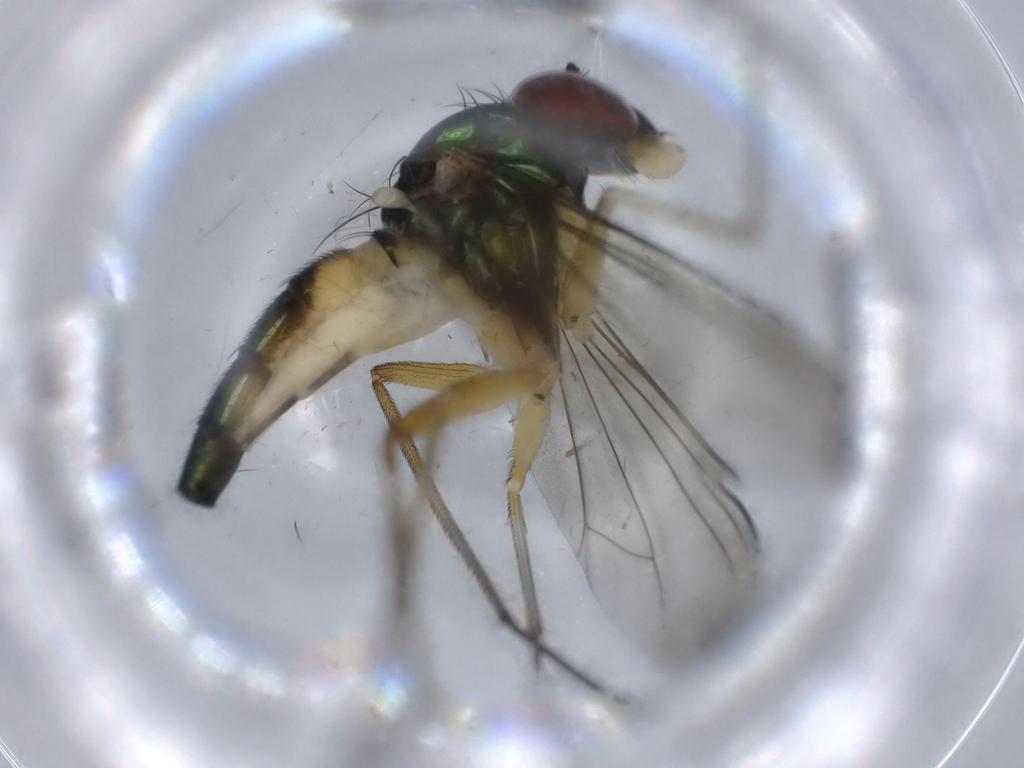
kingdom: Animalia
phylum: Arthropoda
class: Insecta
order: Diptera
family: Dolichopodidae
